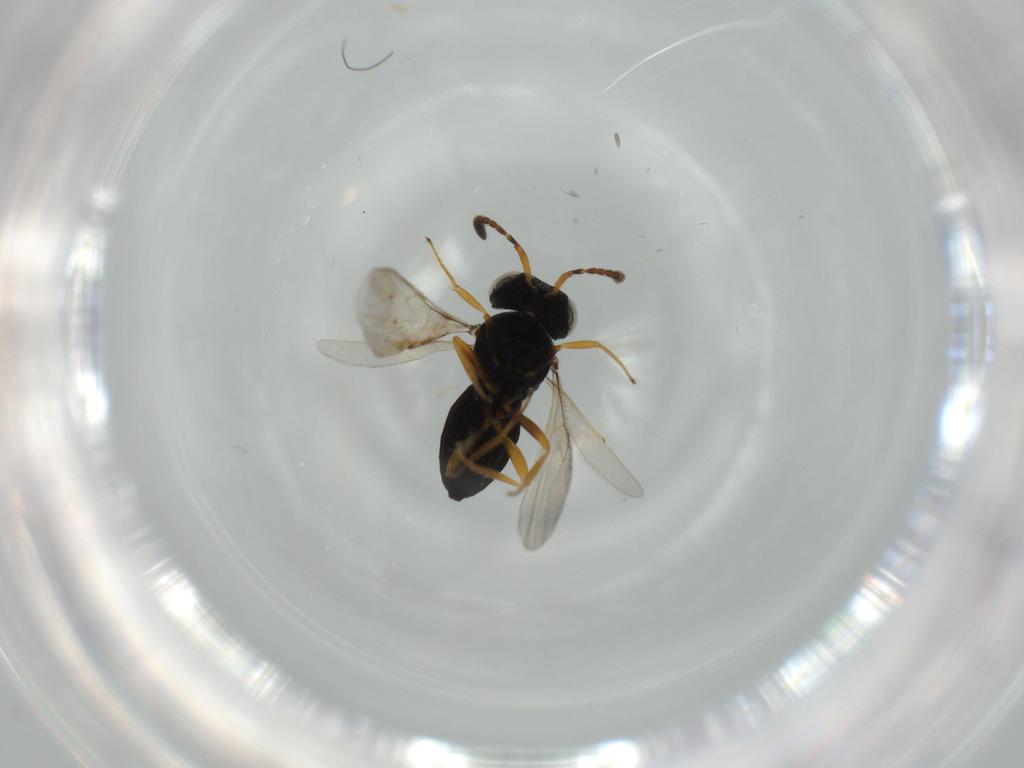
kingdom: Animalia
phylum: Arthropoda
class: Insecta
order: Hymenoptera
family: Scelionidae
